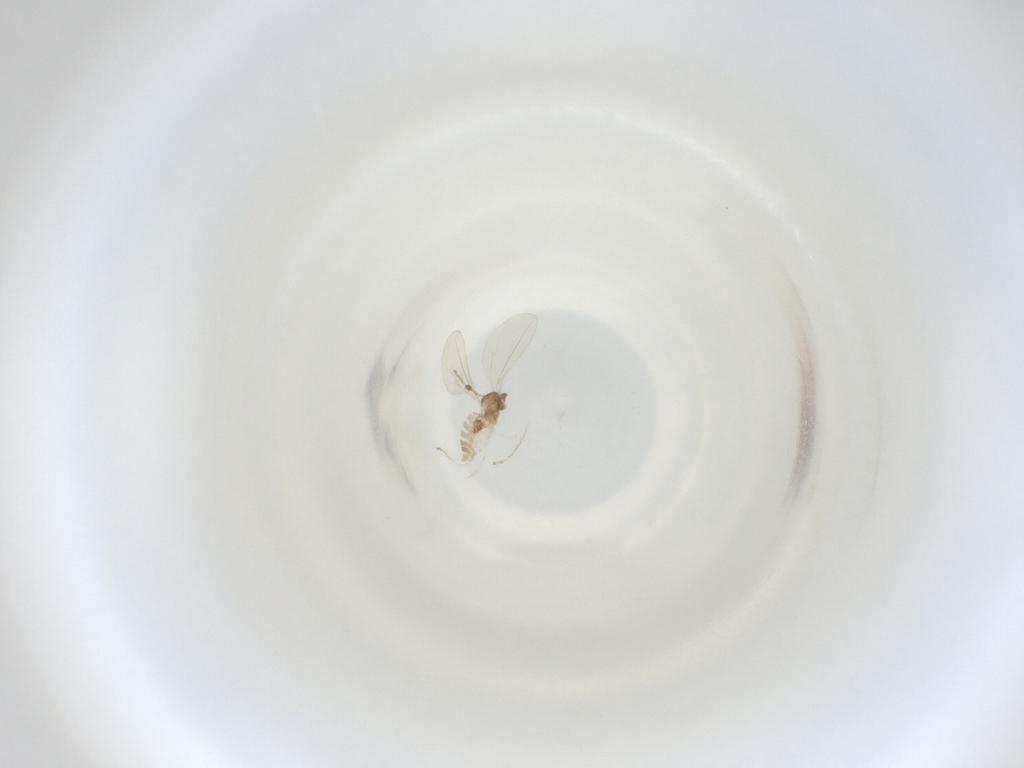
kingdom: Animalia
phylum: Arthropoda
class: Insecta
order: Diptera
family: Cecidomyiidae
